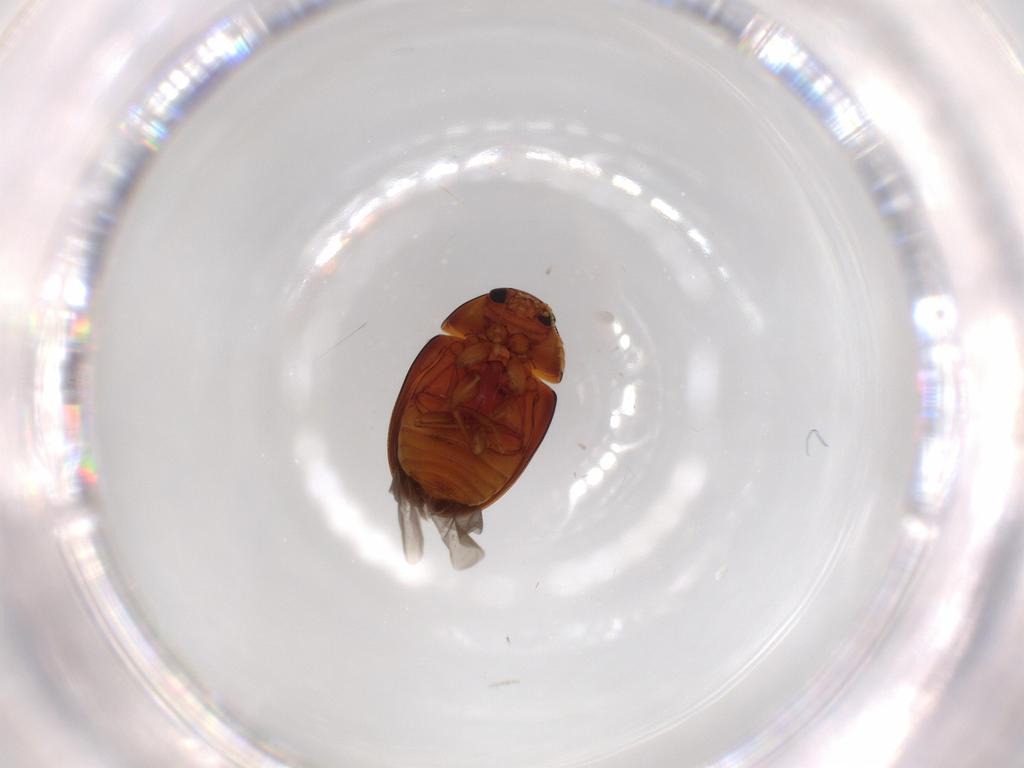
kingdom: Animalia
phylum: Arthropoda
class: Insecta
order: Coleoptera
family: Phalacridae
